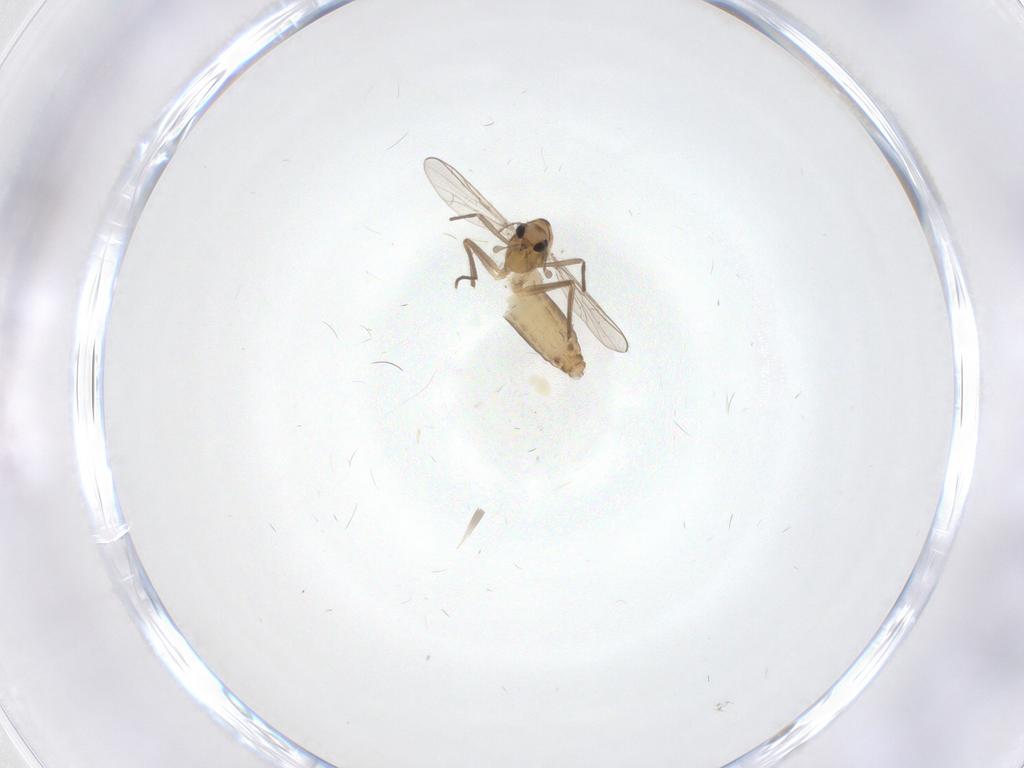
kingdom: Animalia
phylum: Arthropoda
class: Insecta
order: Diptera
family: Chironomidae
